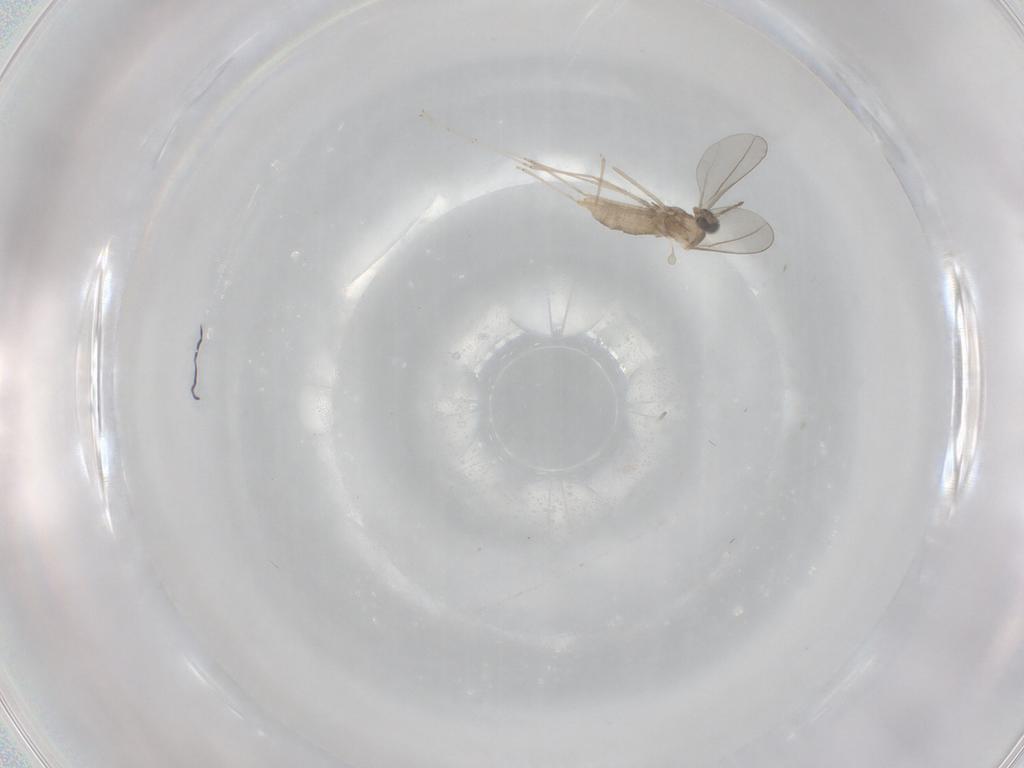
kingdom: Animalia
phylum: Arthropoda
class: Insecta
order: Diptera
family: Cecidomyiidae
